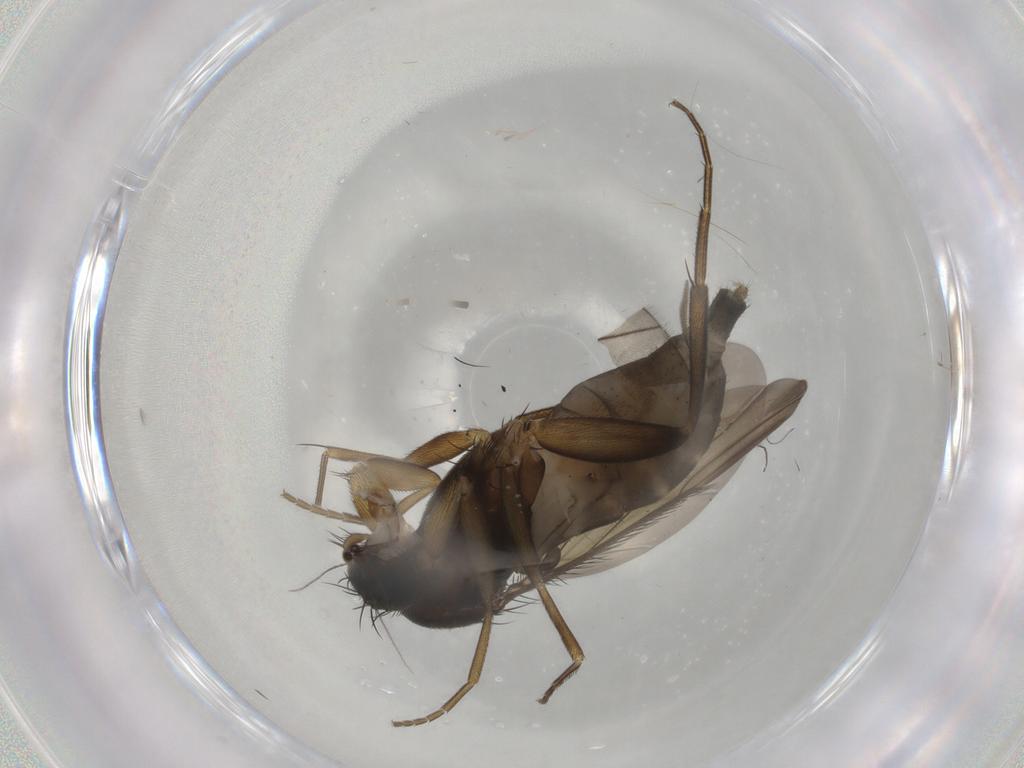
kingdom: Animalia
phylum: Arthropoda
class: Insecta
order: Diptera
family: Phoridae
